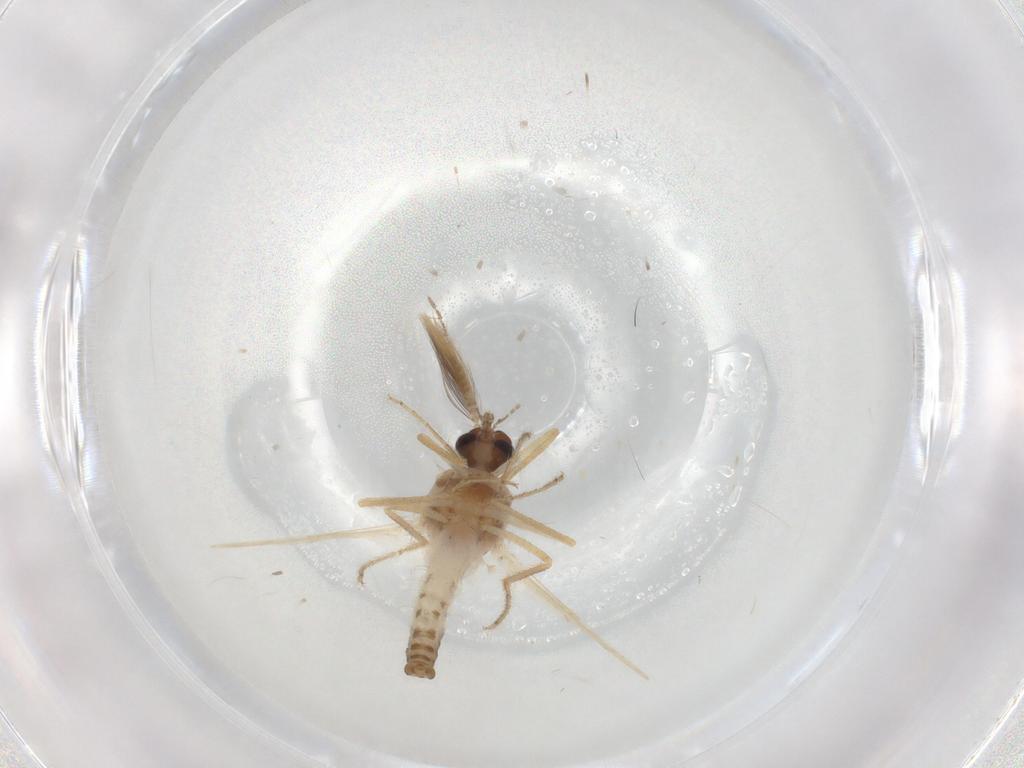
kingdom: Animalia
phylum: Arthropoda
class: Insecta
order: Diptera
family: Ceratopogonidae
